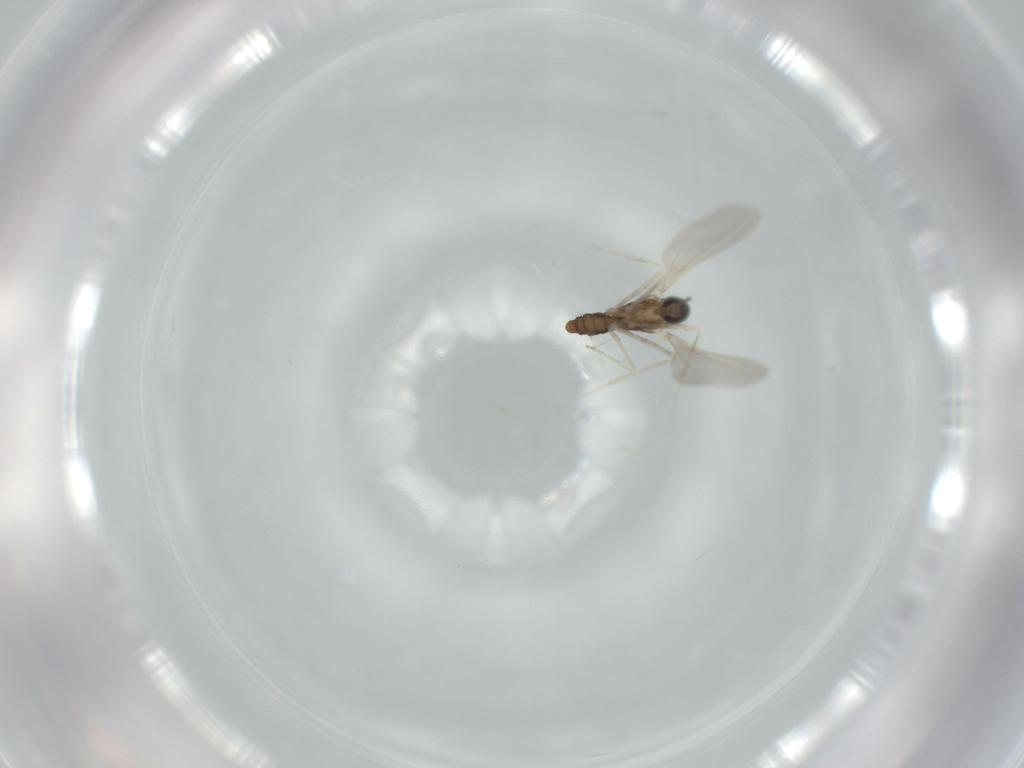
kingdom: Animalia
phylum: Arthropoda
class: Insecta
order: Diptera
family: Cecidomyiidae
